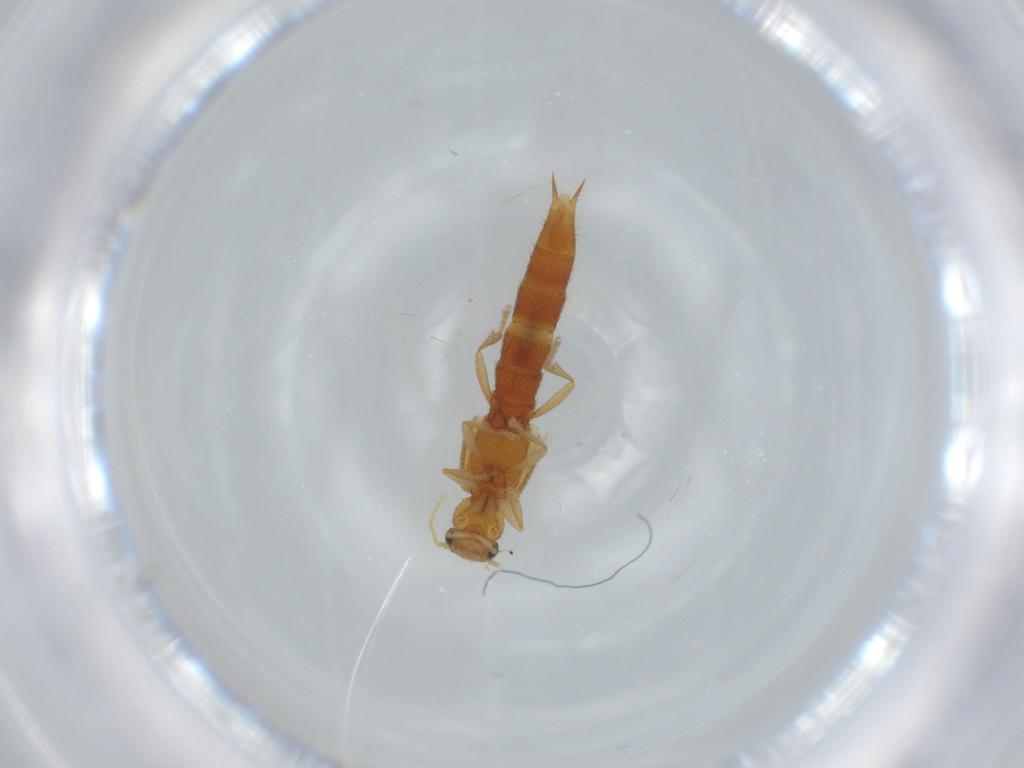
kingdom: Animalia
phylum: Arthropoda
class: Insecta
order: Coleoptera
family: Staphylinidae
